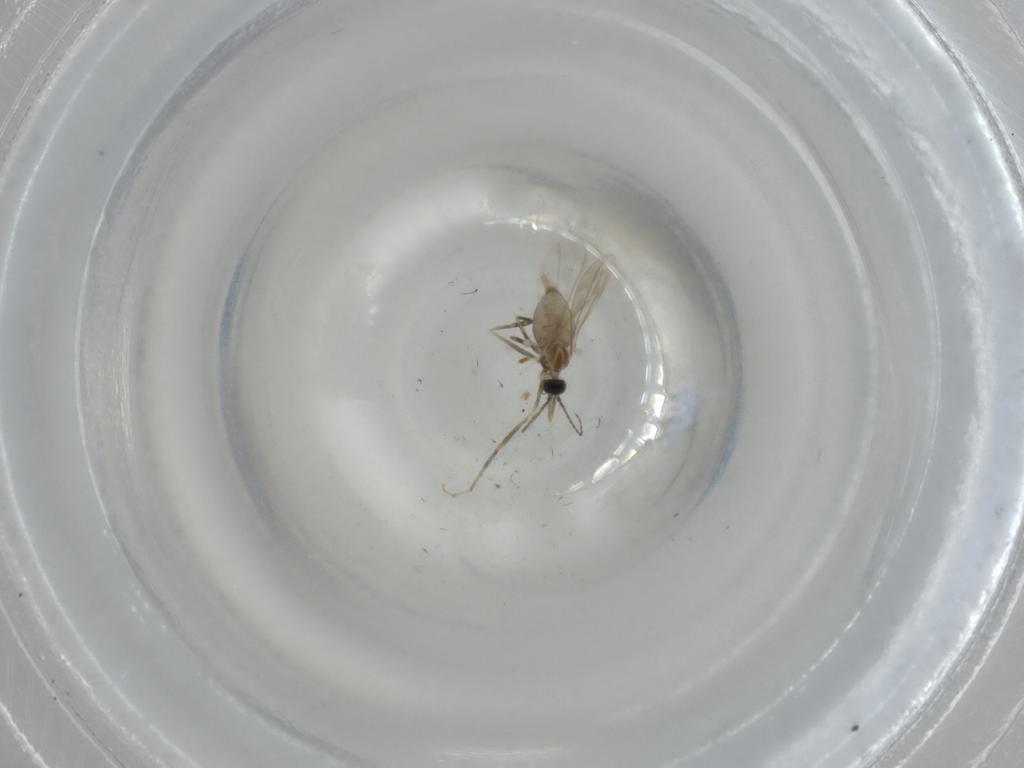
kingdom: Animalia
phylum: Arthropoda
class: Insecta
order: Diptera
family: Cecidomyiidae
